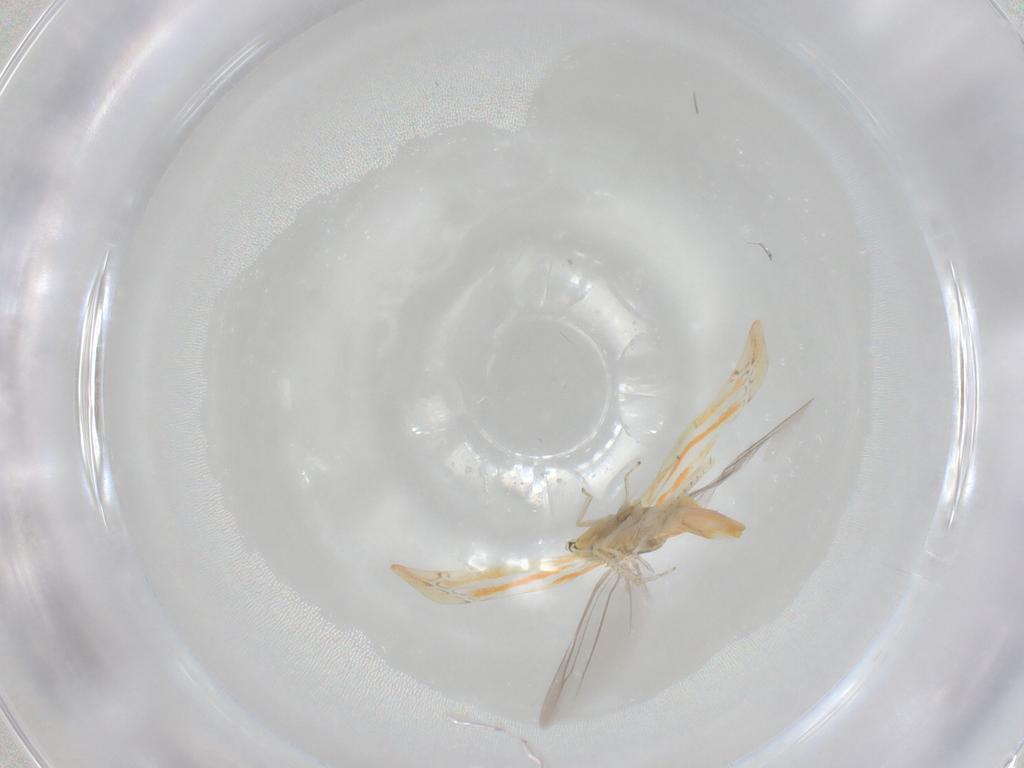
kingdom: Animalia
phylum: Arthropoda
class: Insecta
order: Hemiptera
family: Cicadellidae
